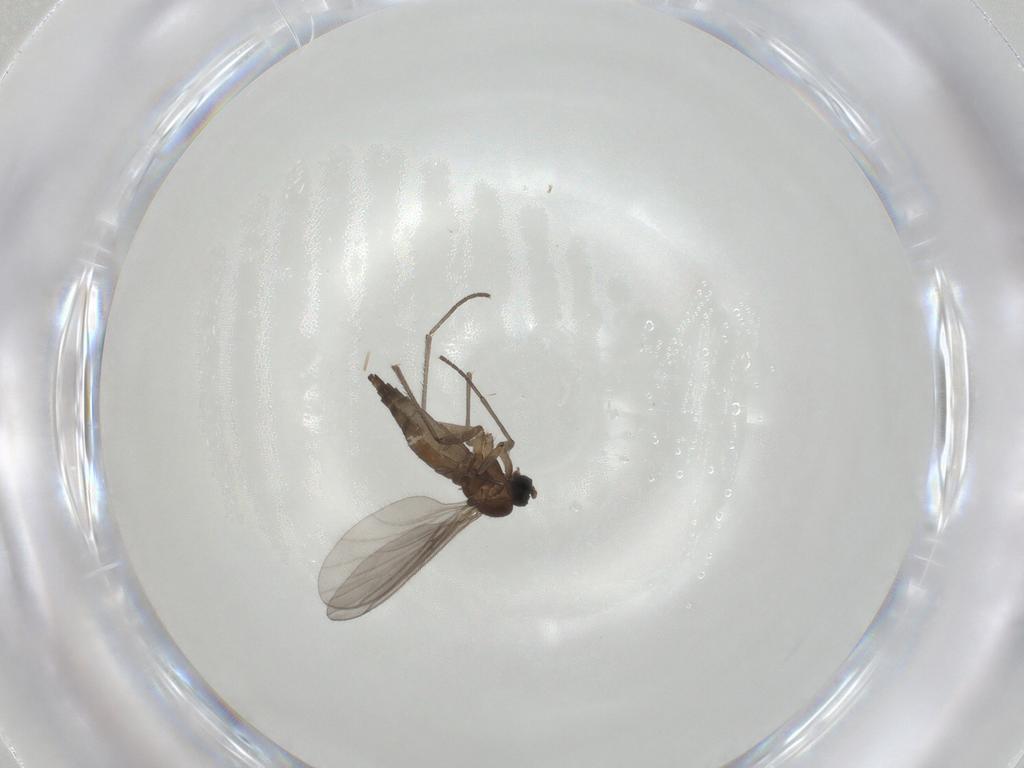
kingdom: Animalia
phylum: Arthropoda
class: Insecta
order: Diptera
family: Sciaridae
